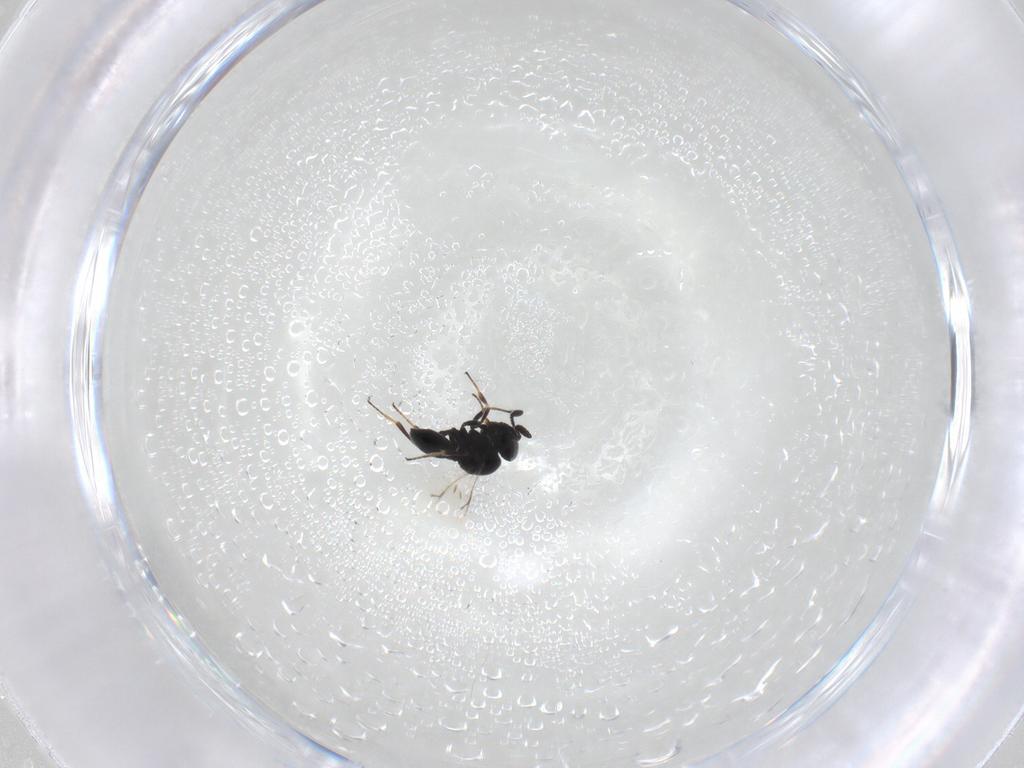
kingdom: Animalia
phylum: Arthropoda
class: Insecta
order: Hymenoptera
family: Scelionidae
